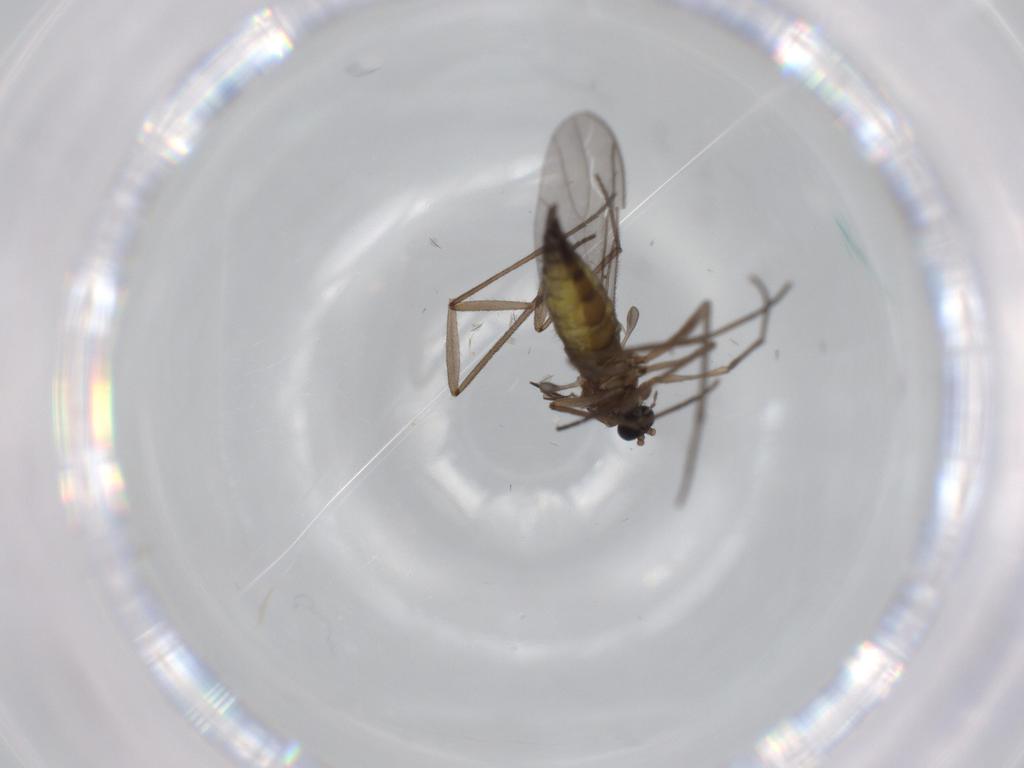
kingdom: Animalia
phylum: Arthropoda
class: Insecta
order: Diptera
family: Sciaridae
